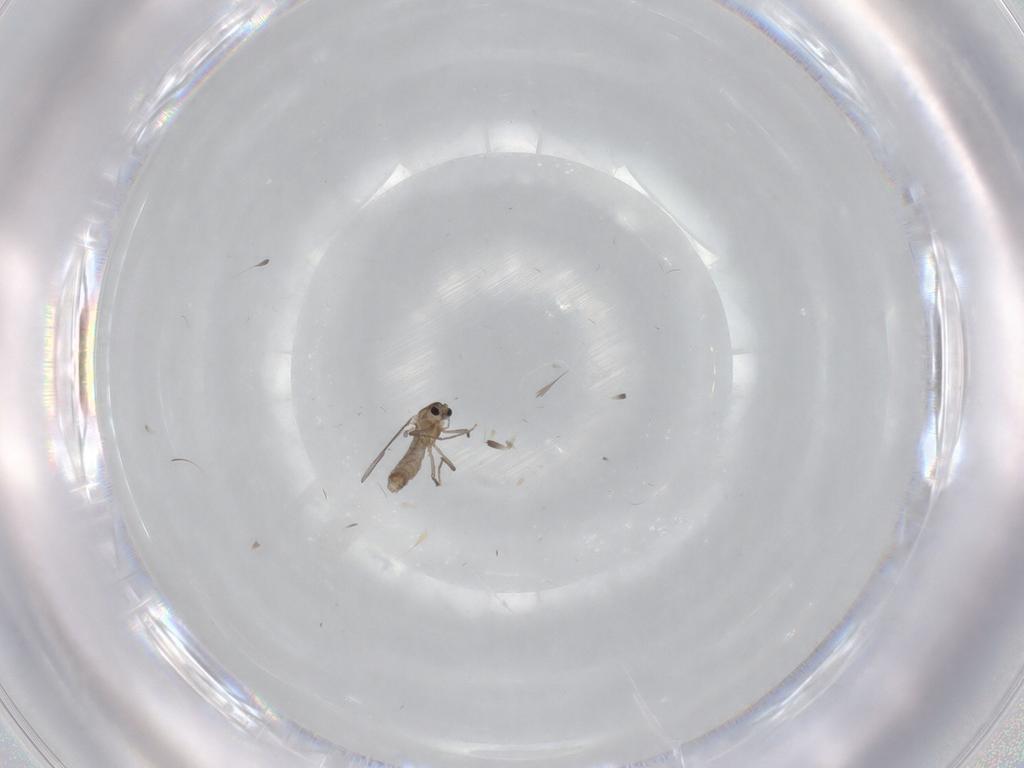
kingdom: Animalia
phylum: Arthropoda
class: Insecta
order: Diptera
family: Chironomidae
